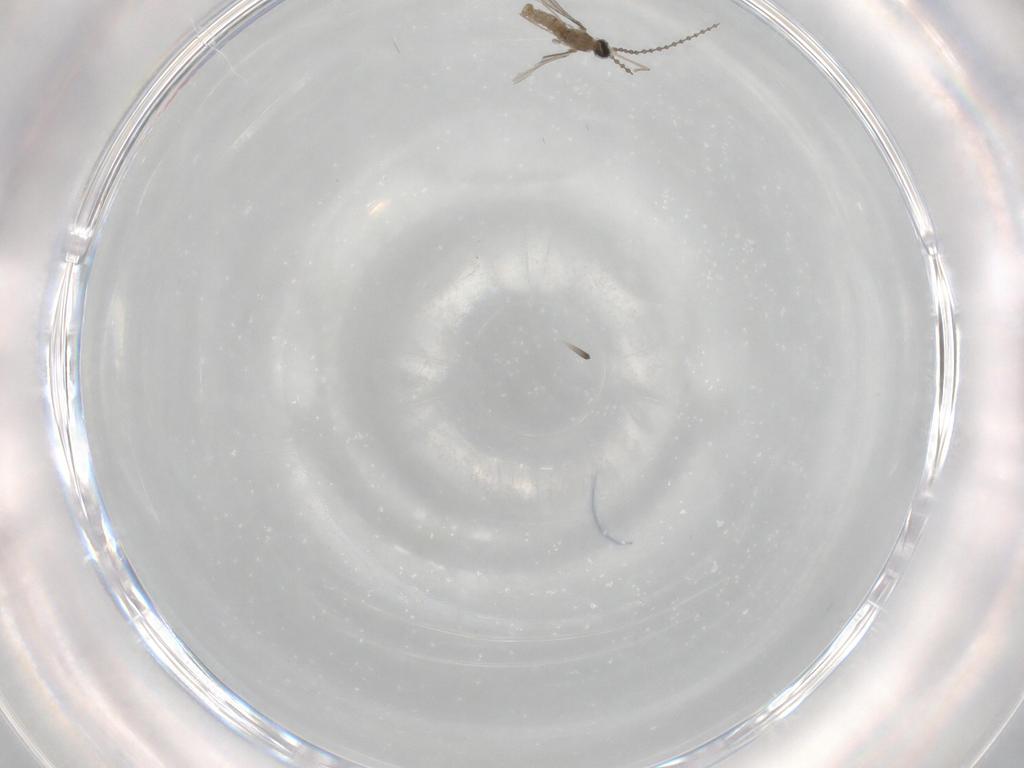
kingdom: Animalia
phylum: Arthropoda
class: Insecta
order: Diptera
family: Cecidomyiidae
